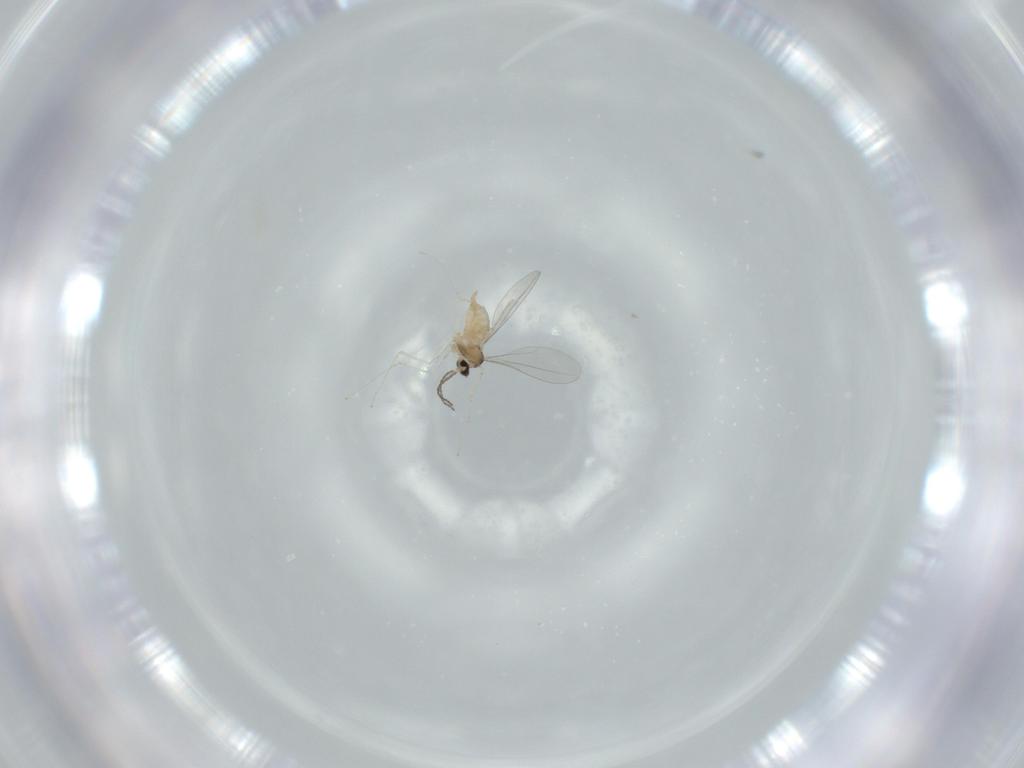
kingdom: Animalia
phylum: Arthropoda
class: Insecta
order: Diptera
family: Cecidomyiidae
